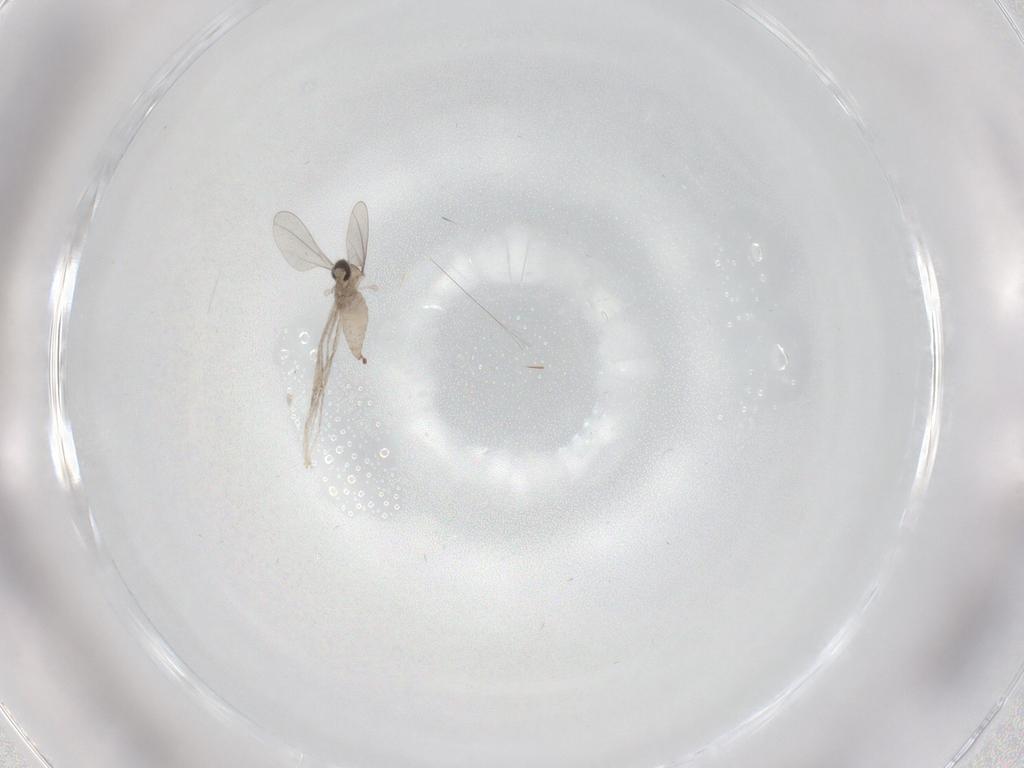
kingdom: Animalia
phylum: Arthropoda
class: Insecta
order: Diptera
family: Cecidomyiidae
